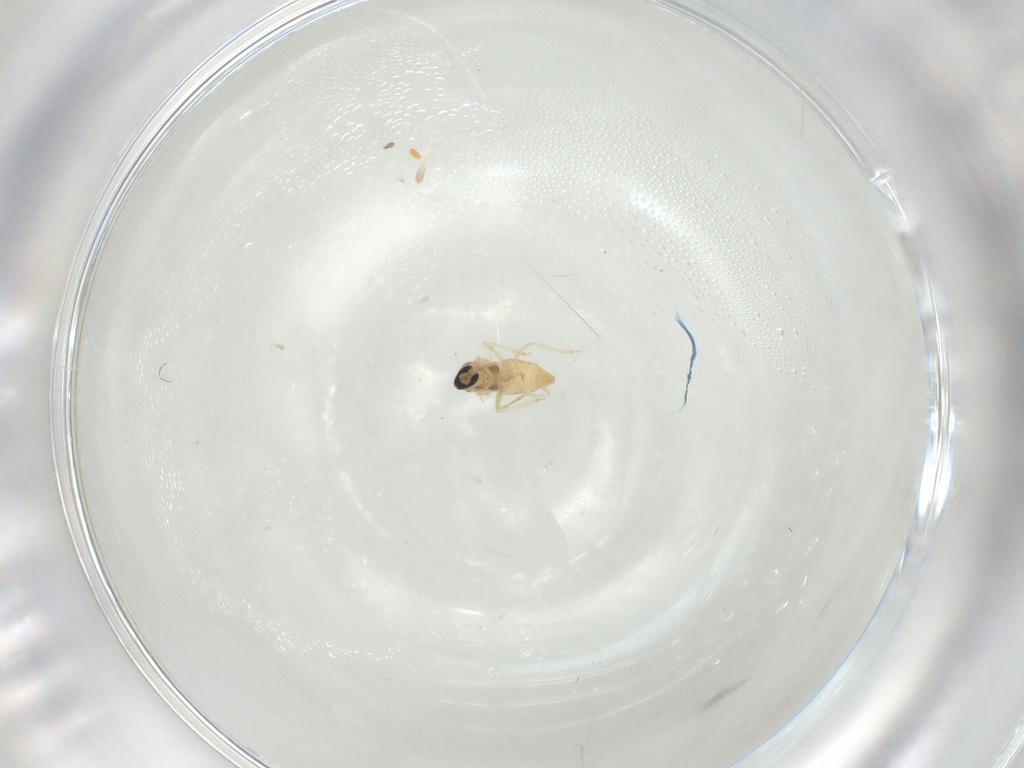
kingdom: Animalia
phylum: Arthropoda
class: Insecta
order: Diptera
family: Cecidomyiidae
